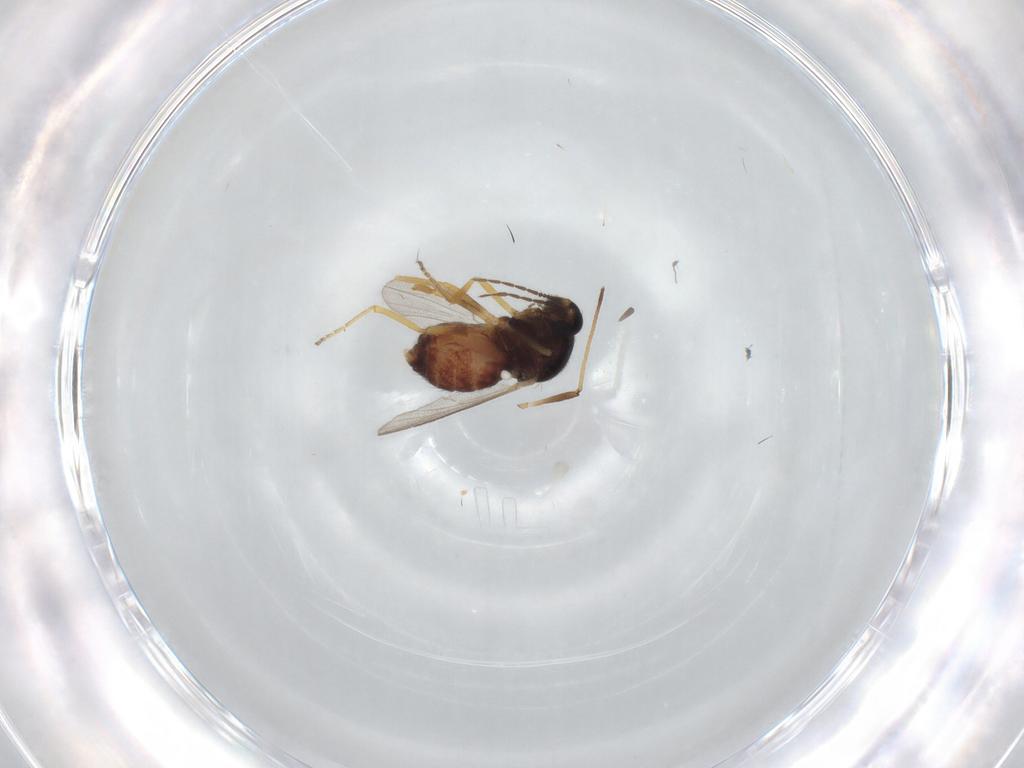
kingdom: Animalia
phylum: Arthropoda
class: Insecta
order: Diptera
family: Ceratopogonidae
